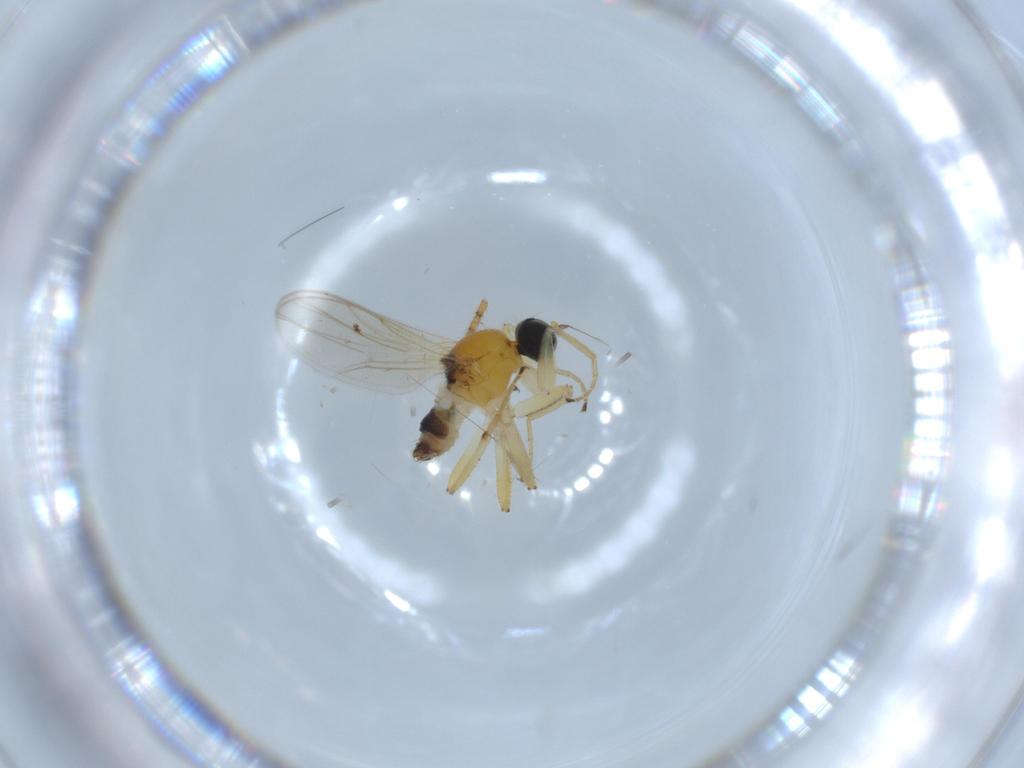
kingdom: Animalia
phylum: Arthropoda
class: Insecta
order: Diptera
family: Hybotidae
